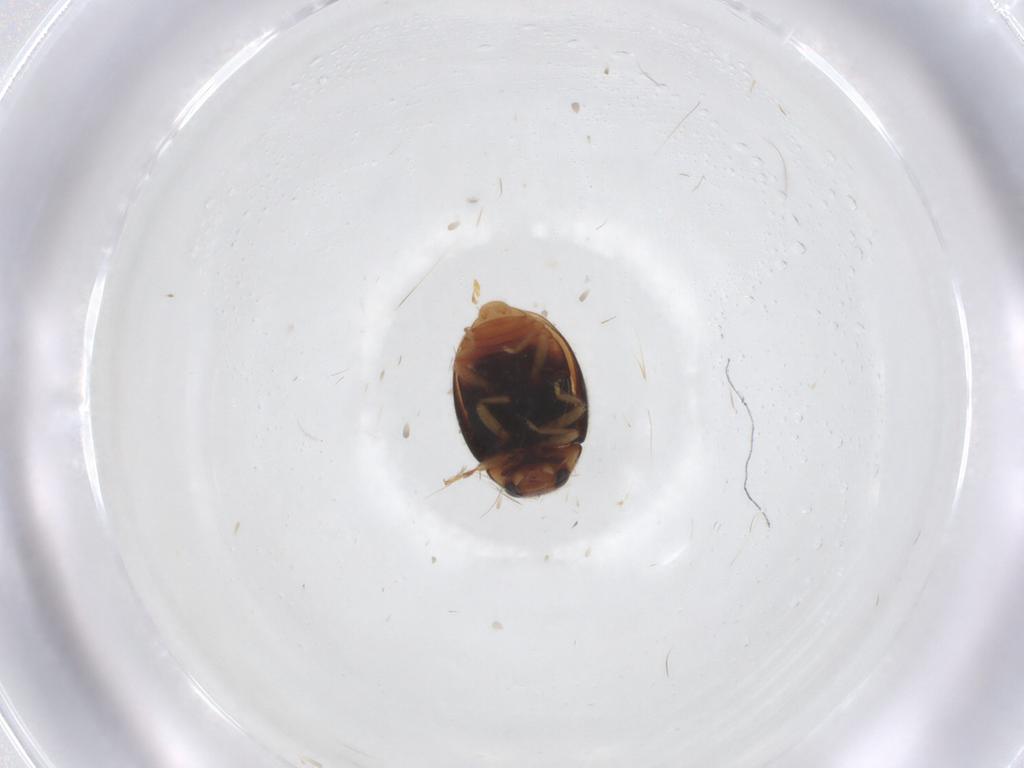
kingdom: Animalia
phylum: Arthropoda
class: Insecta
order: Coleoptera
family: Coccinellidae
